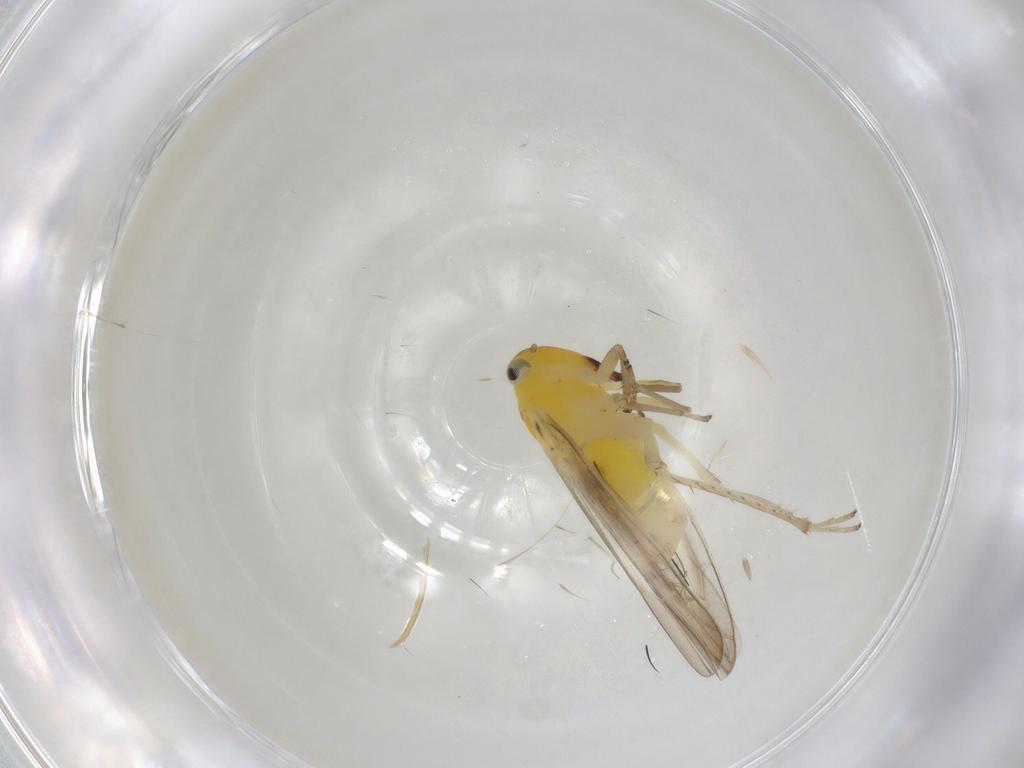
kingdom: Animalia
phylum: Arthropoda
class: Insecta
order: Hemiptera
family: Cicadellidae
